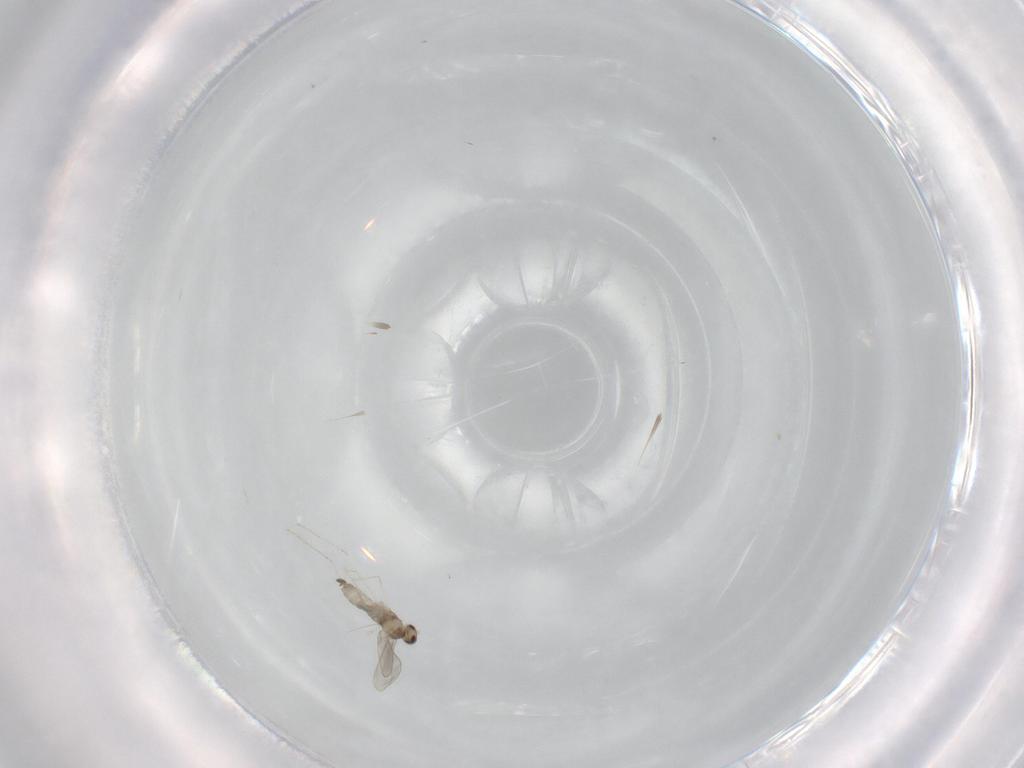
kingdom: Animalia
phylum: Arthropoda
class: Insecta
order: Diptera
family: Cecidomyiidae
